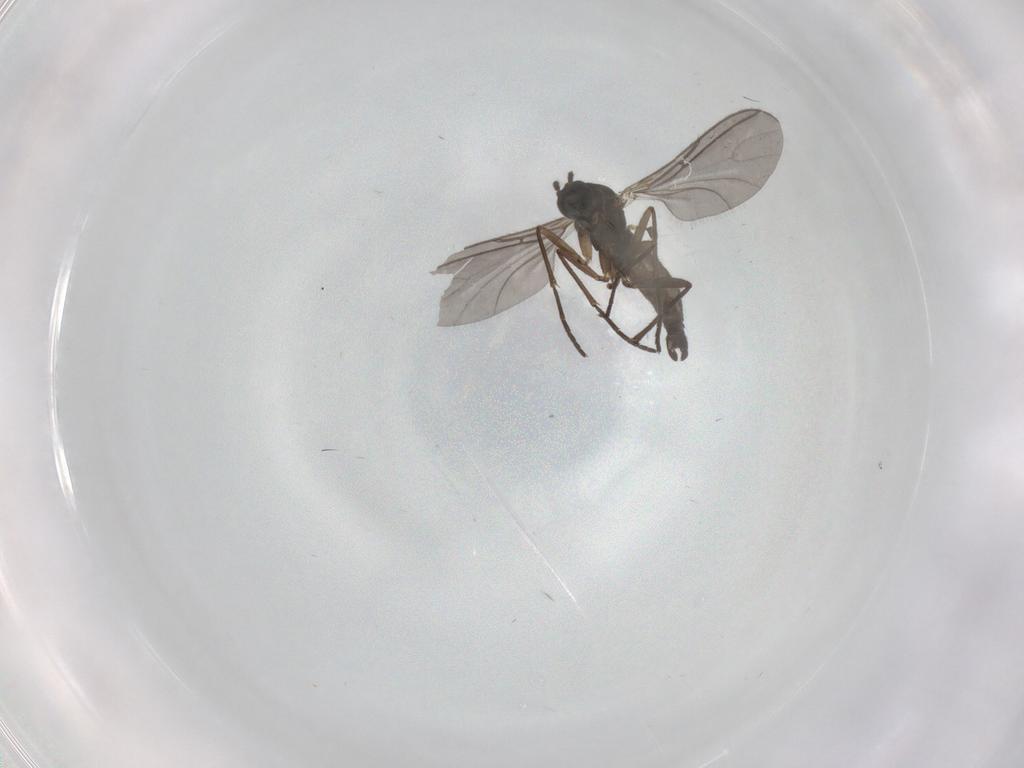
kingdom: Animalia
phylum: Arthropoda
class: Insecta
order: Diptera
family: Sciaridae
